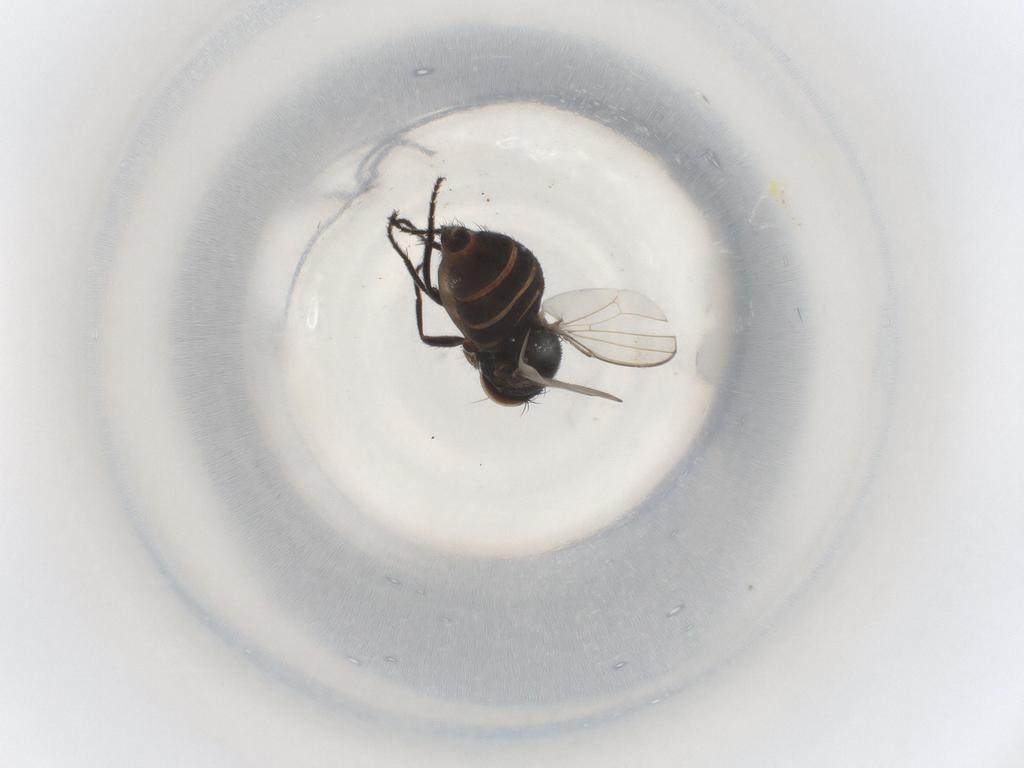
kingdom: Animalia
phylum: Arthropoda
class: Insecta
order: Diptera
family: Milichiidae
